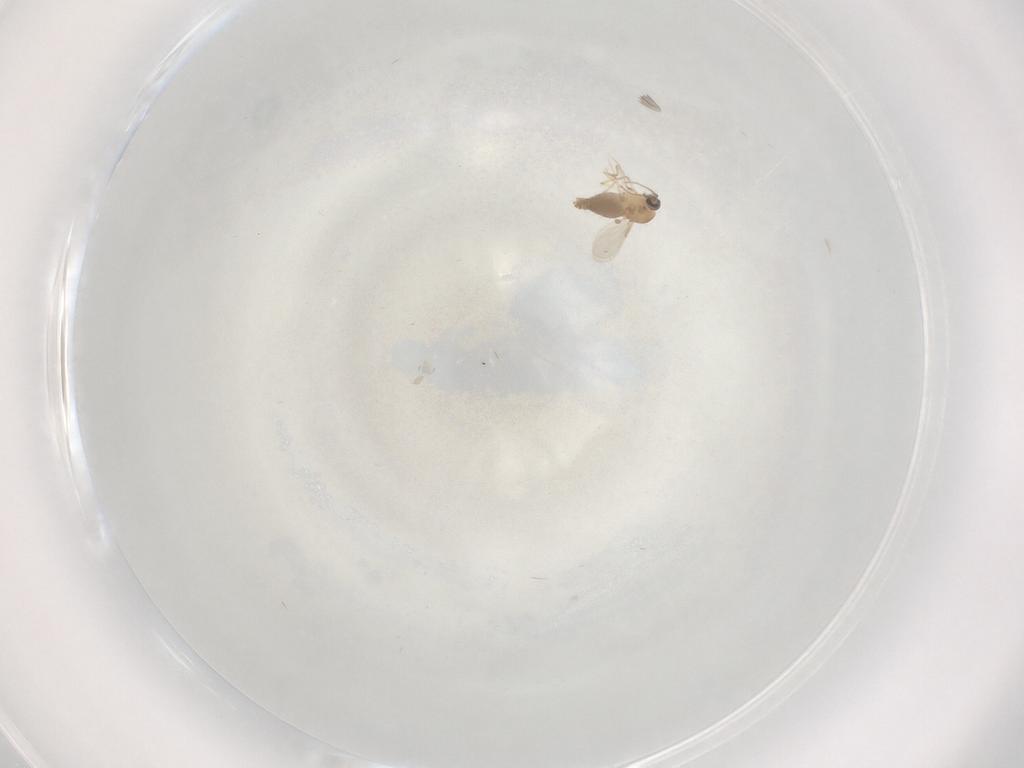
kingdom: Animalia
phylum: Arthropoda
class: Insecta
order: Diptera
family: Ceratopogonidae
